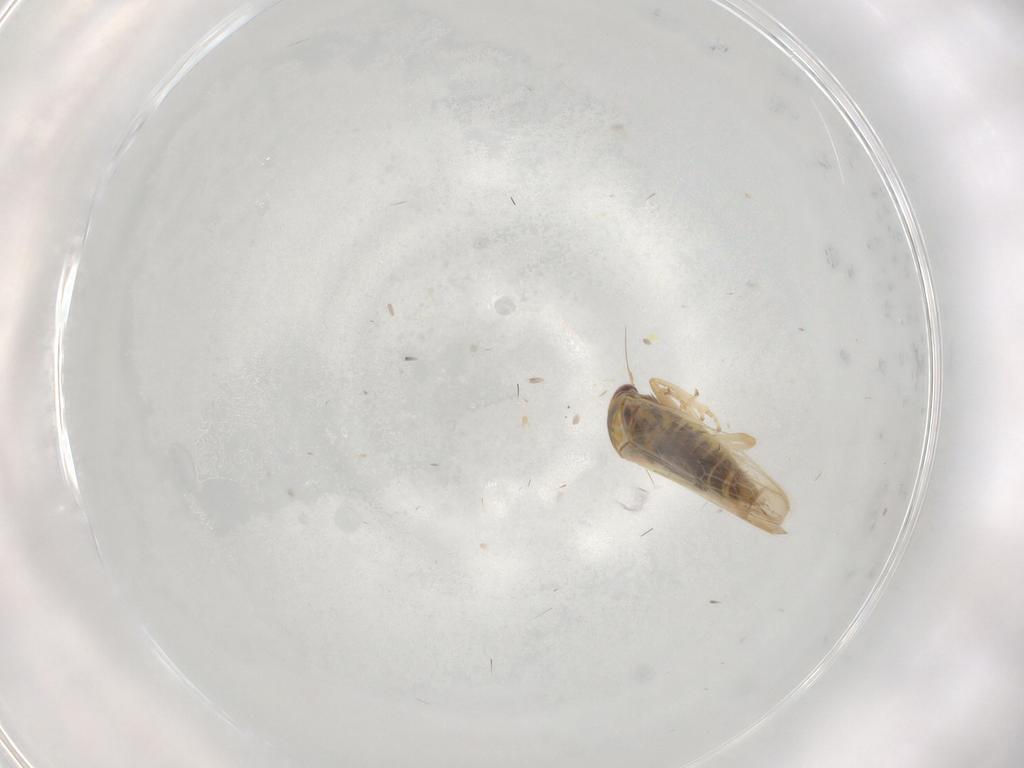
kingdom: Animalia
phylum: Arthropoda
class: Insecta
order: Hemiptera
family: Cicadellidae
